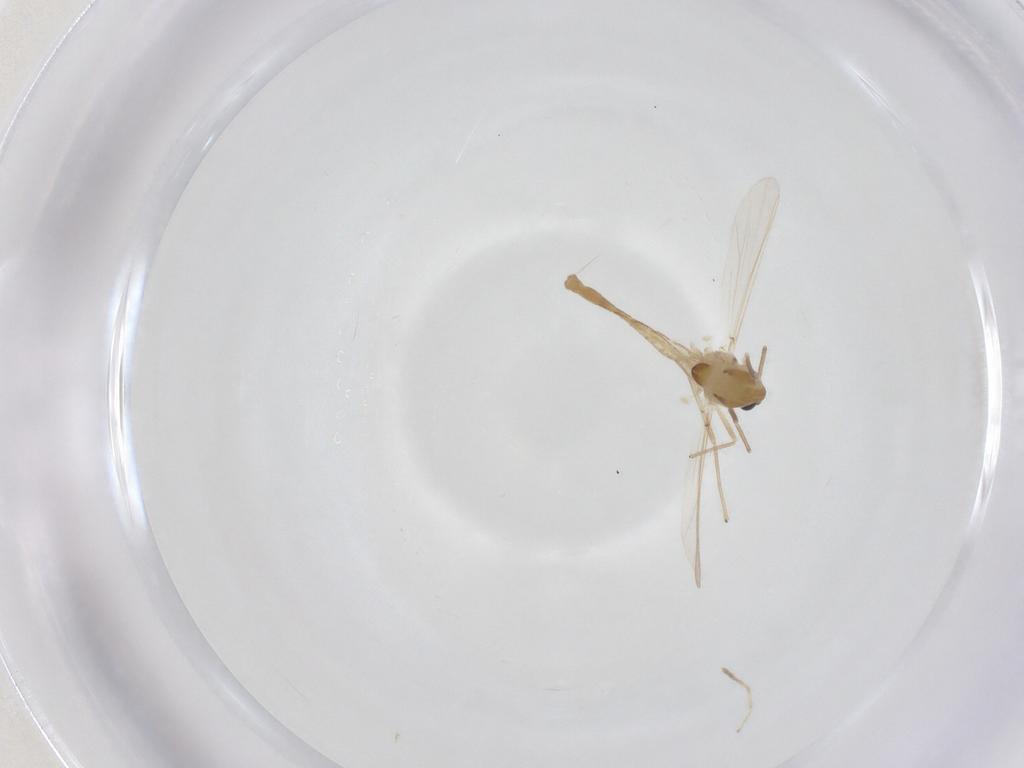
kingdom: Animalia
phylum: Arthropoda
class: Insecta
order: Diptera
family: Chironomidae
